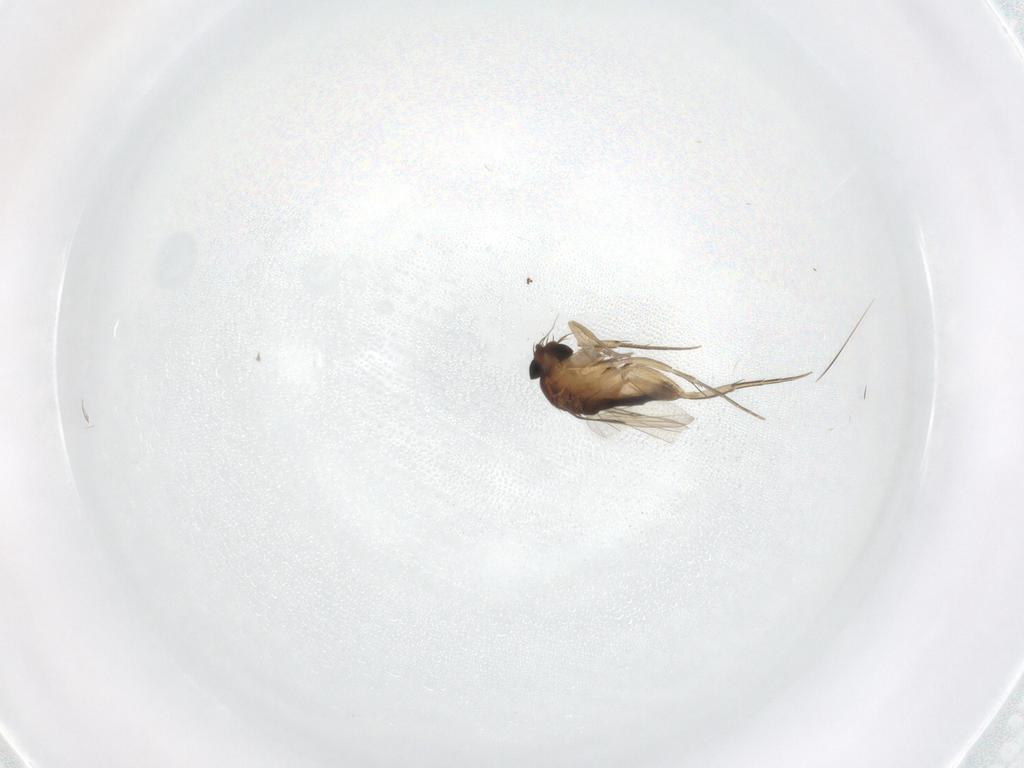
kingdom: Animalia
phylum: Arthropoda
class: Insecta
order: Diptera
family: Phoridae
